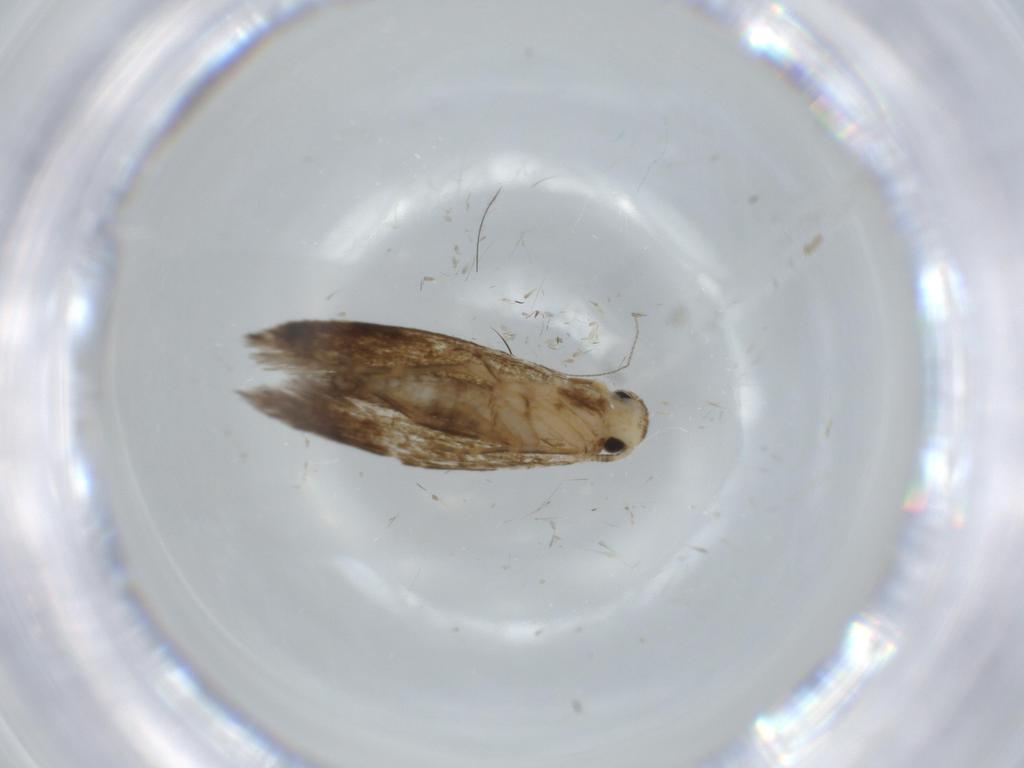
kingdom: Animalia
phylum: Arthropoda
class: Insecta
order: Lepidoptera
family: Tineidae
